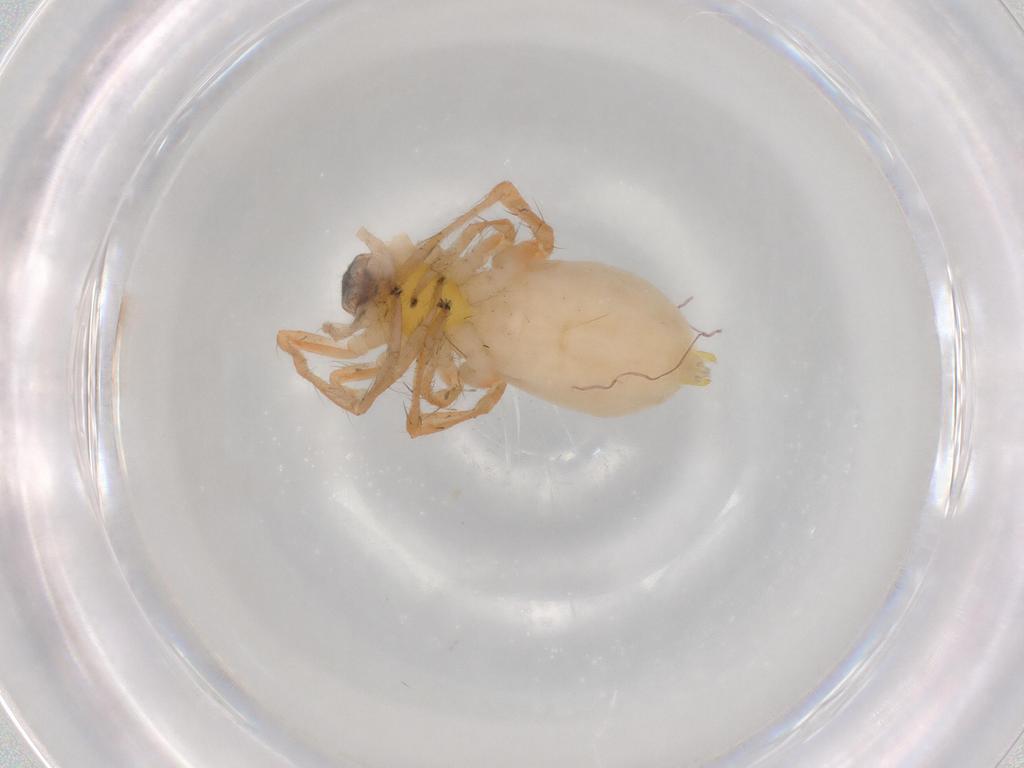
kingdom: Animalia
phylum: Arthropoda
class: Arachnida
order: Araneae
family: Anyphaenidae
